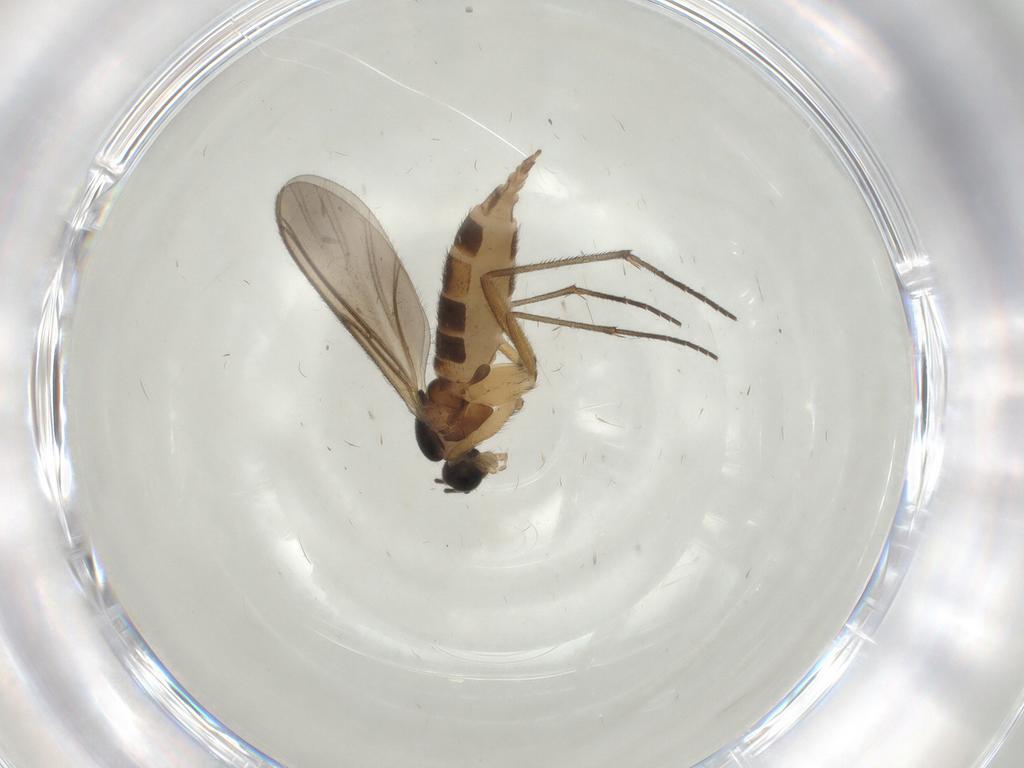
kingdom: Animalia
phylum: Arthropoda
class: Insecta
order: Diptera
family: Sciaridae
